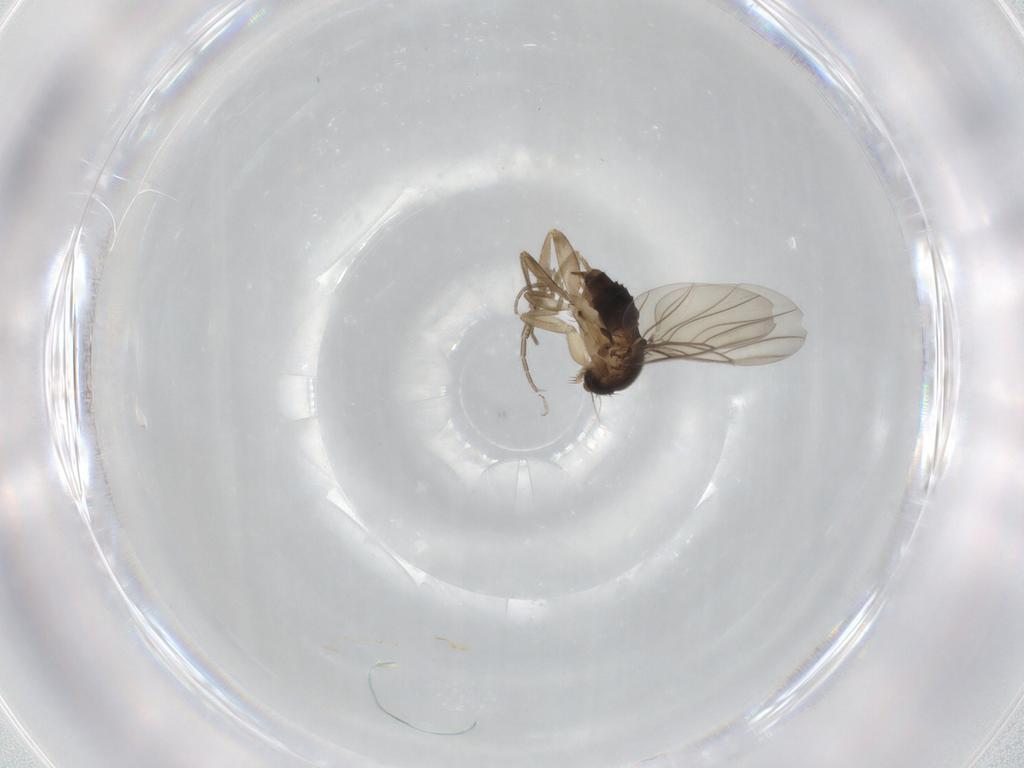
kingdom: Animalia
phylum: Arthropoda
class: Insecta
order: Diptera
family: Phoridae
